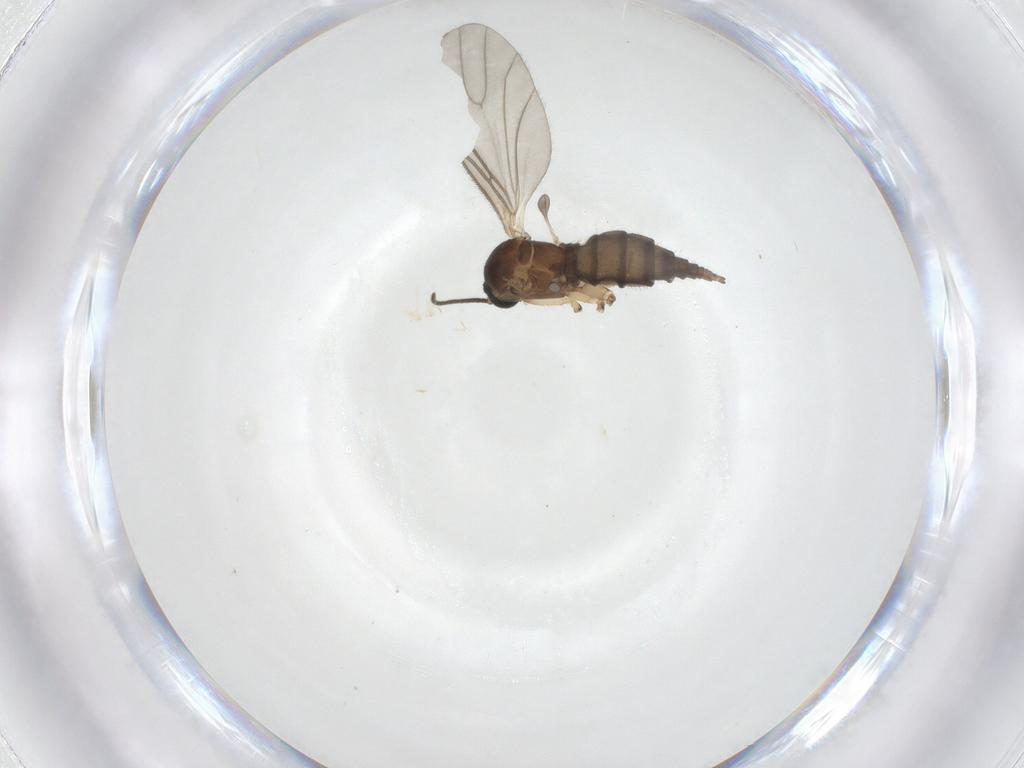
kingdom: Animalia
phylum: Arthropoda
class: Insecta
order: Diptera
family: Sciaridae
